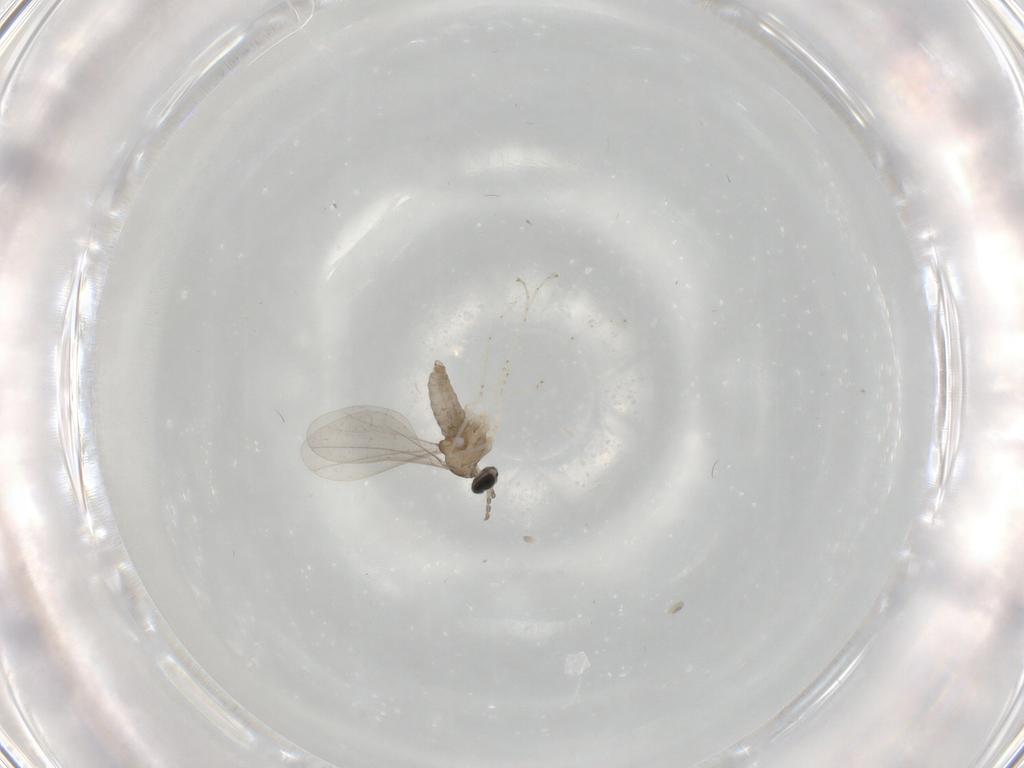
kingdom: Animalia
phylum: Arthropoda
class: Insecta
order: Diptera
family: Cecidomyiidae
